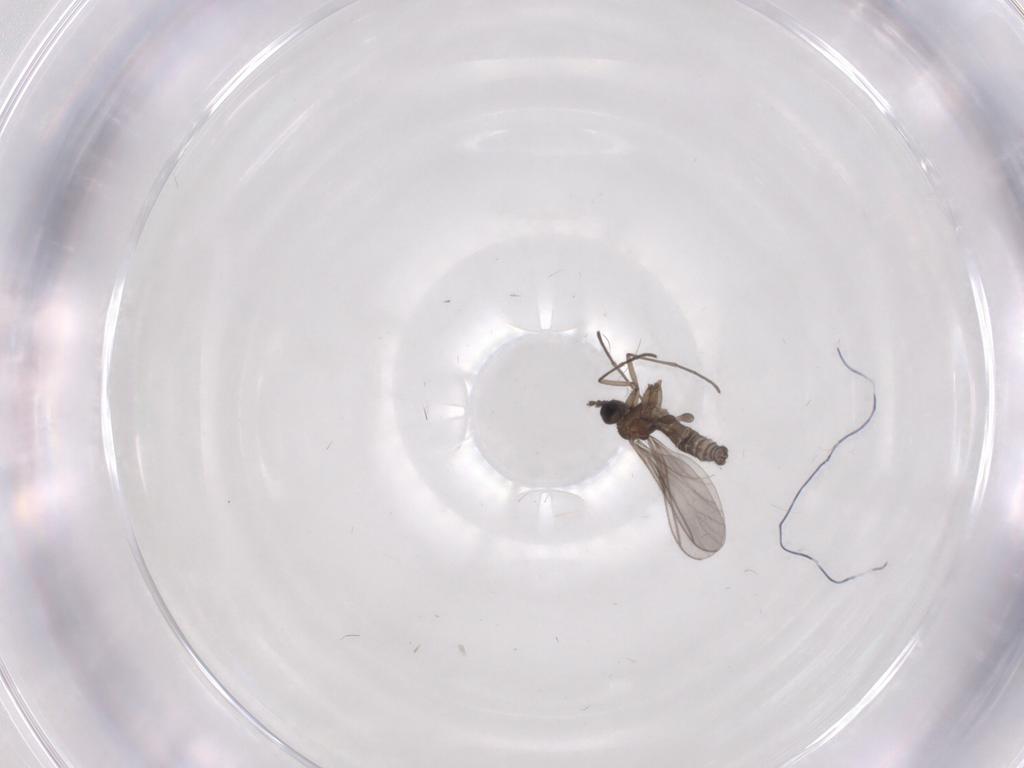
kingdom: Animalia
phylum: Arthropoda
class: Insecta
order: Diptera
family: Sciaridae
